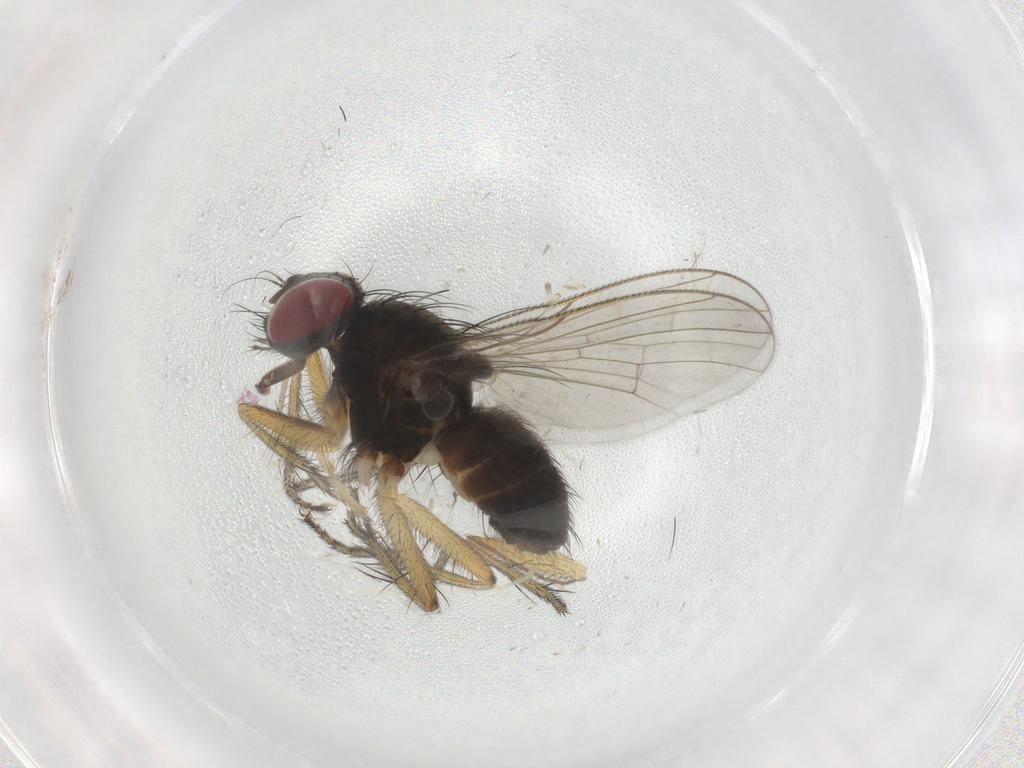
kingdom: Animalia
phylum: Arthropoda
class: Insecta
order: Diptera
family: Muscidae
